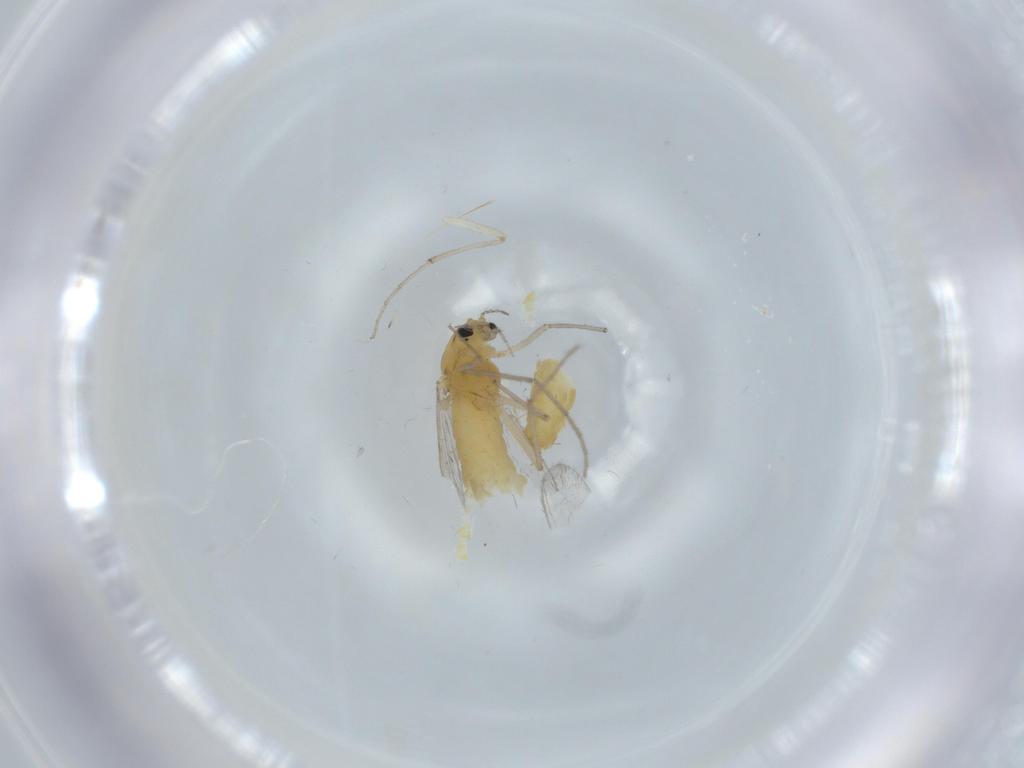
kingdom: Animalia
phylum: Arthropoda
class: Insecta
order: Diptera
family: Chironomidae
